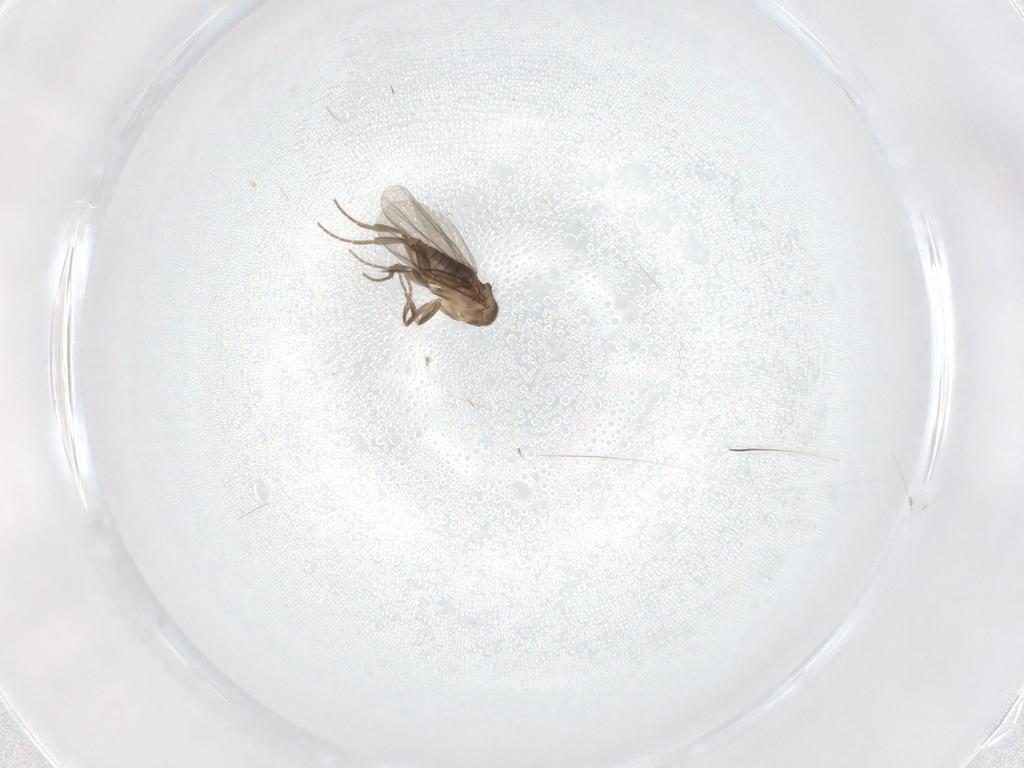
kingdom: Animalia
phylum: Arthropoda
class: Insecta
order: Diptera
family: Phoridae
